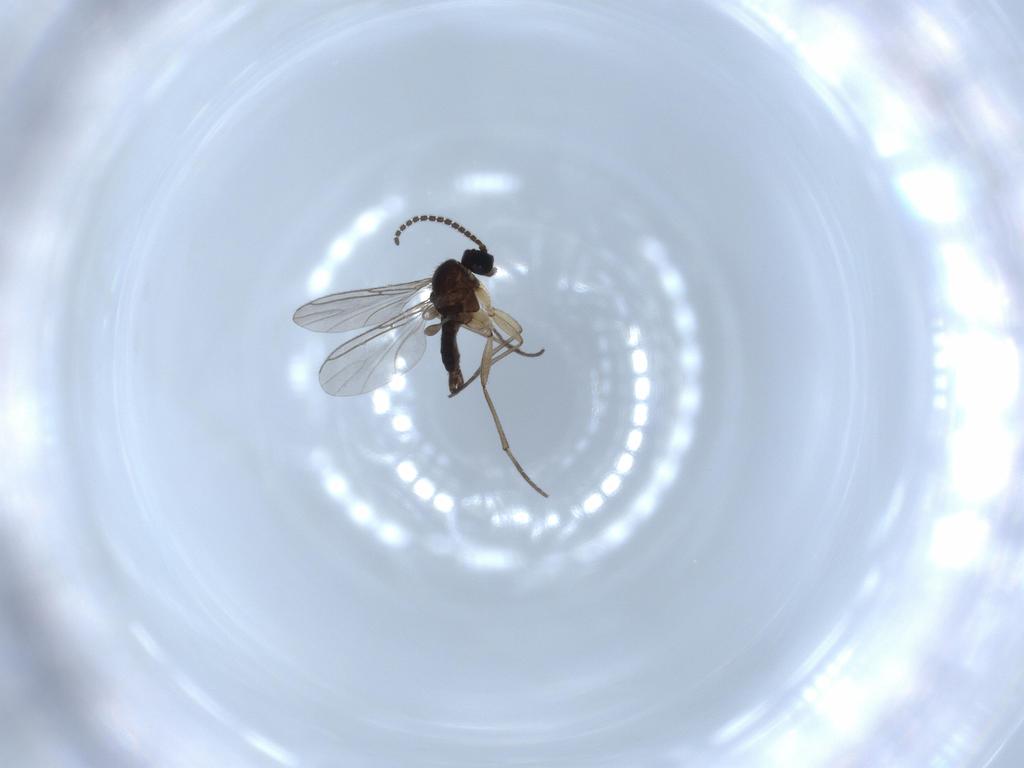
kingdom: Animalia
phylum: Arthropoda
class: Insecta
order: Diptera
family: Sciaridae
